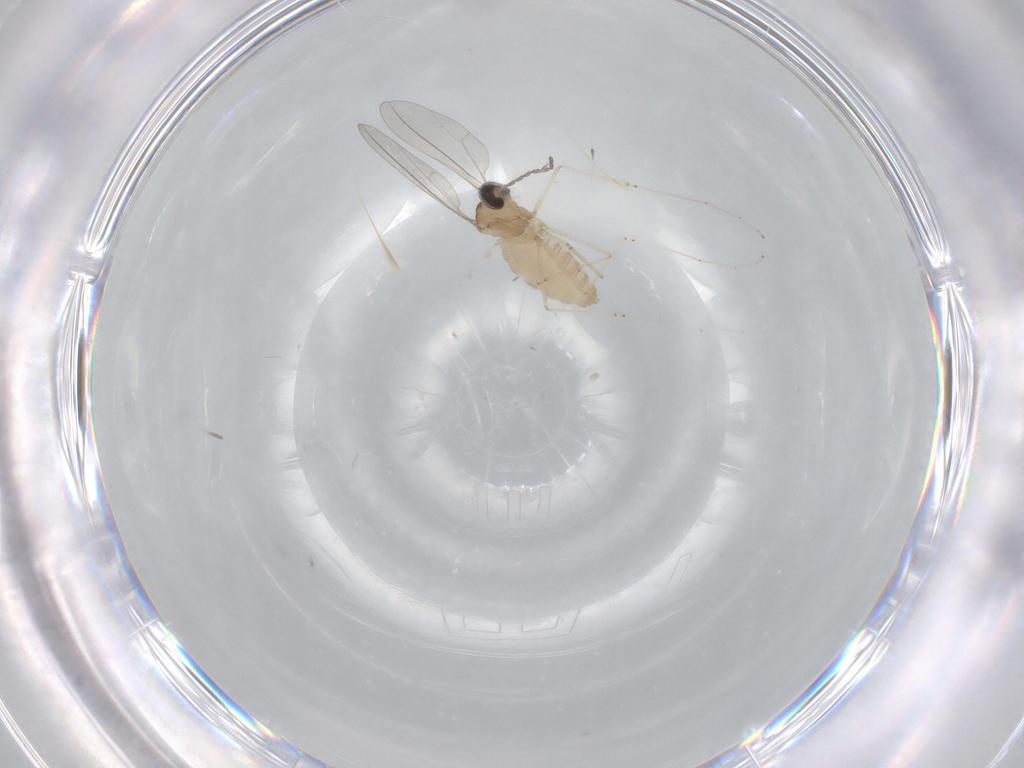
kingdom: Animalia
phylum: Arthropoda
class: Insecta
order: Diptera
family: Cecidomyiidae
